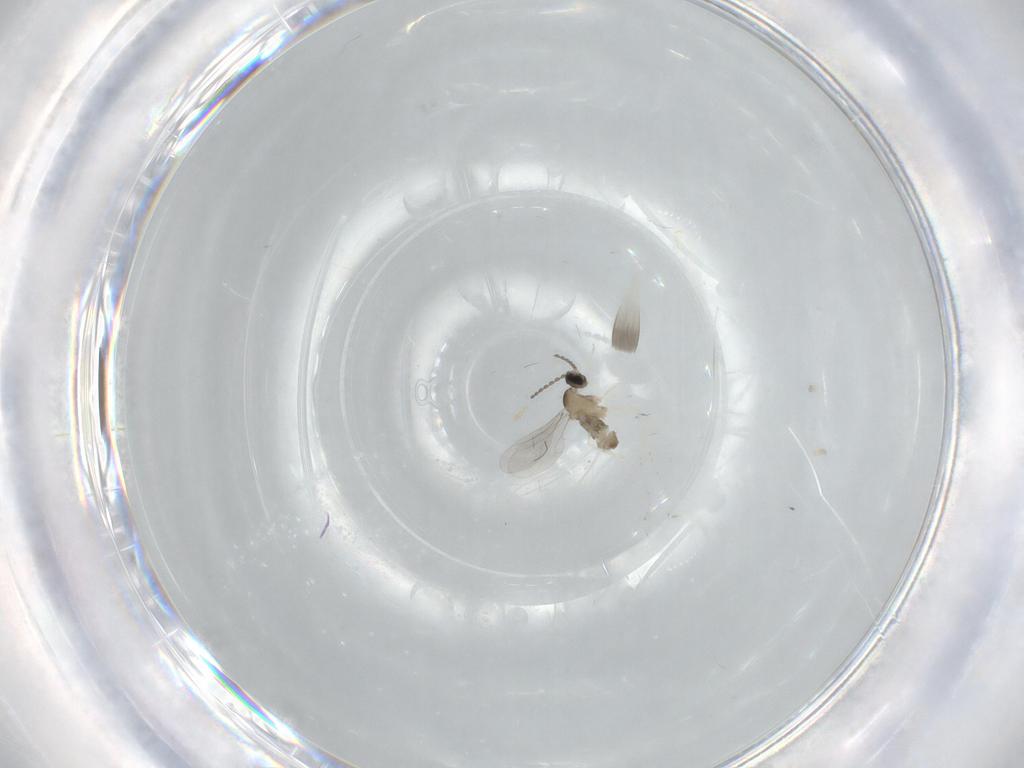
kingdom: Animalia
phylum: Arthropoda
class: Insecta
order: Diptera
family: Cecidomyiidae
